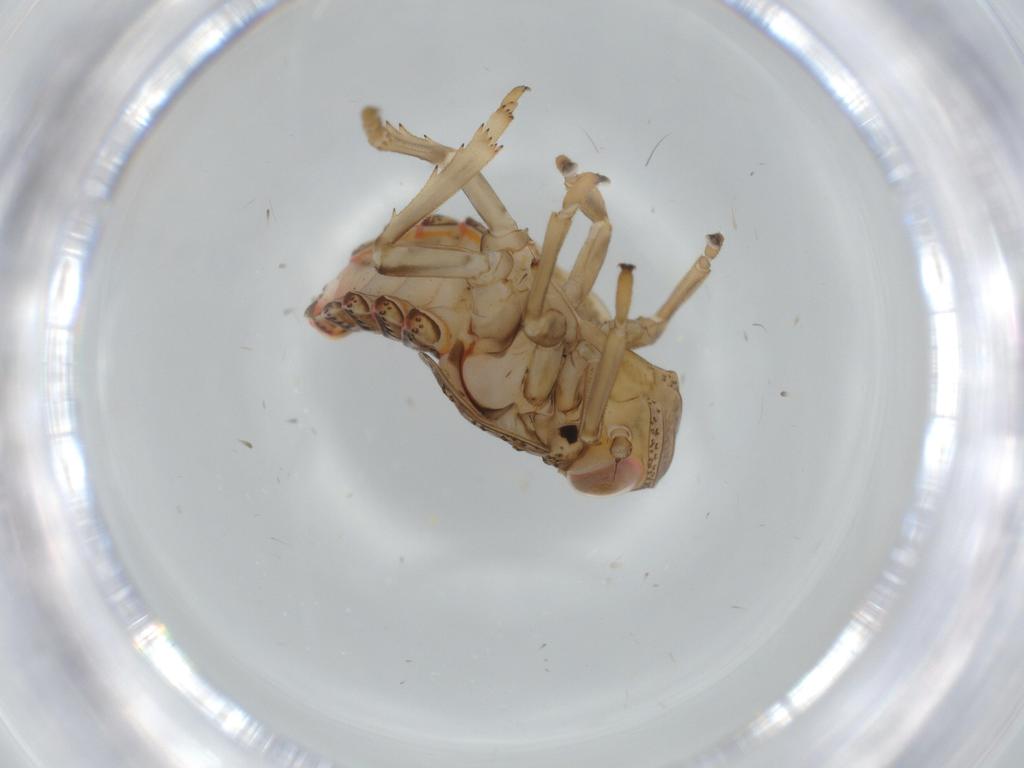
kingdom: Animalia
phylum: Arthropoda
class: Insecta
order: Hemiptera
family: Issidae
